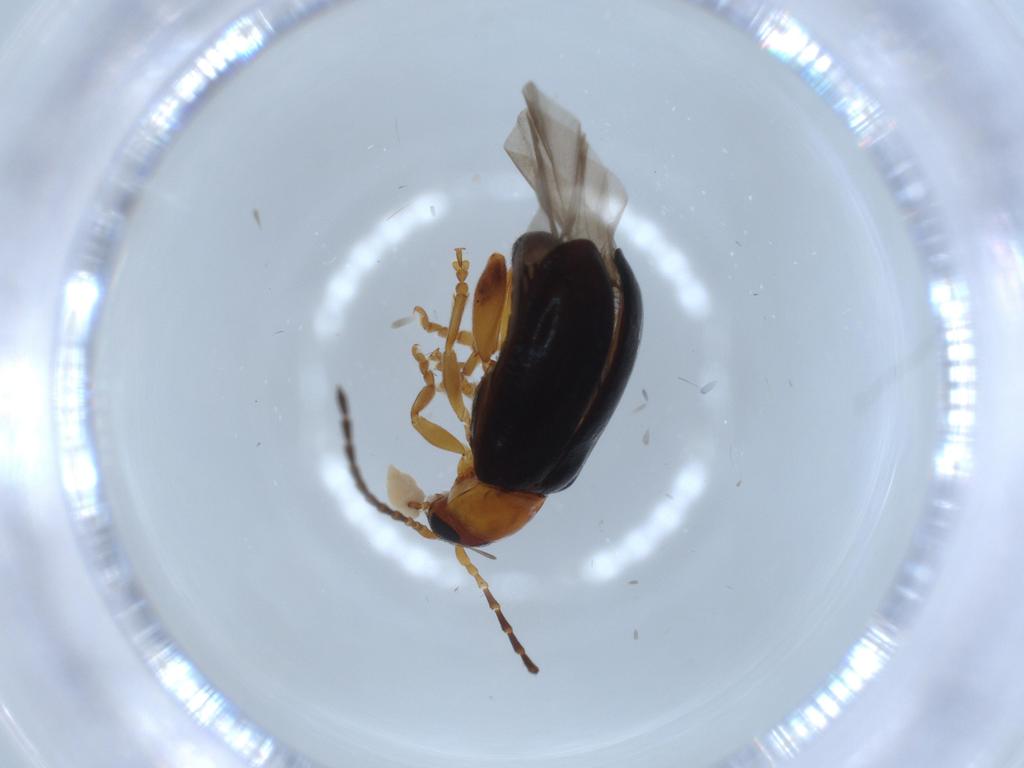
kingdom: Animalia
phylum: Arthropoda
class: Insecta
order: Coleoptera
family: Chrysomelidae
